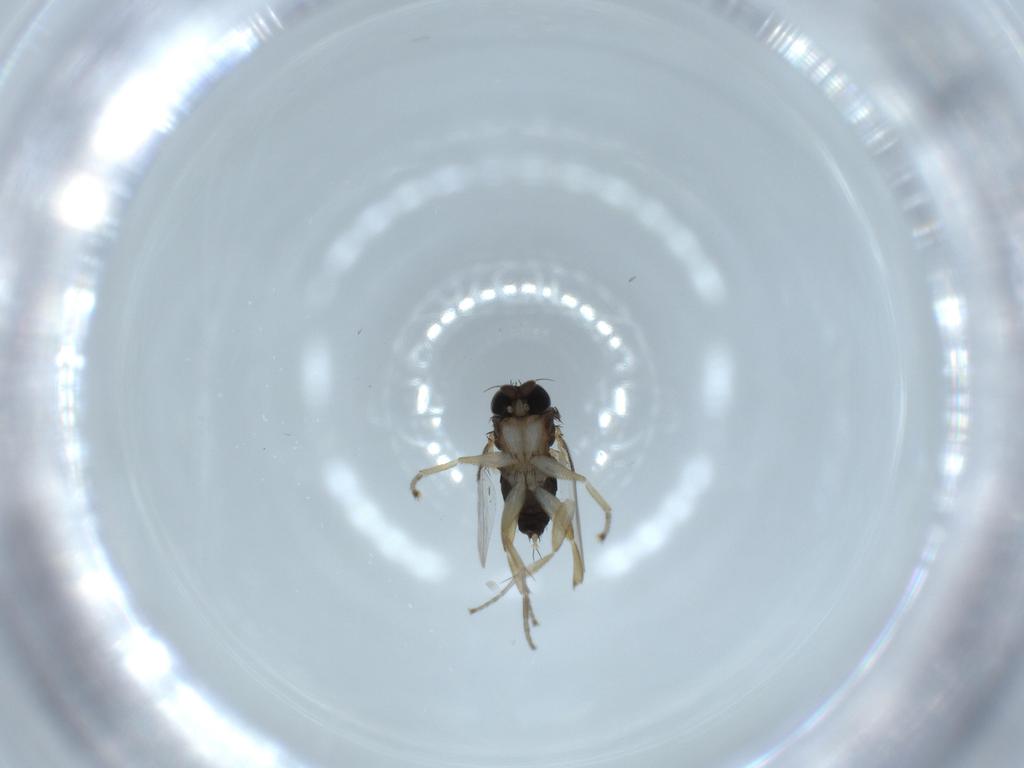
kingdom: Animalia
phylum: Arthropoda
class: Insecta
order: Diptera
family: Phoridae
